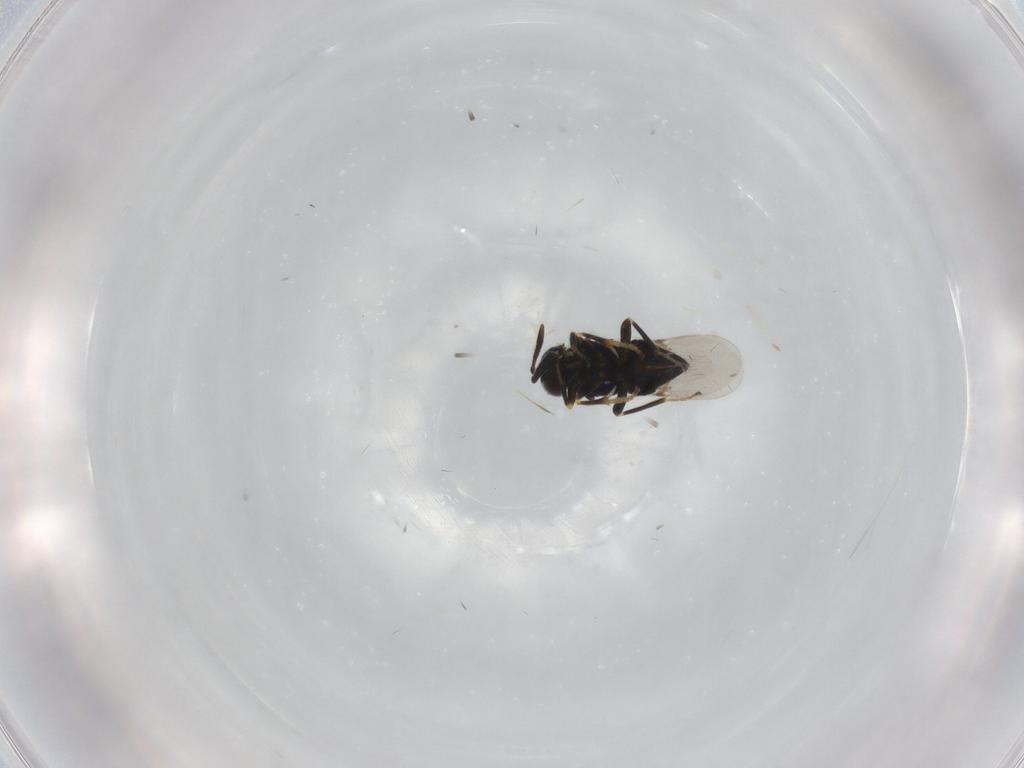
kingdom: Animalia
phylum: Arthropoda
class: Insecta
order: Hymenoptera
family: Encyrtidae
